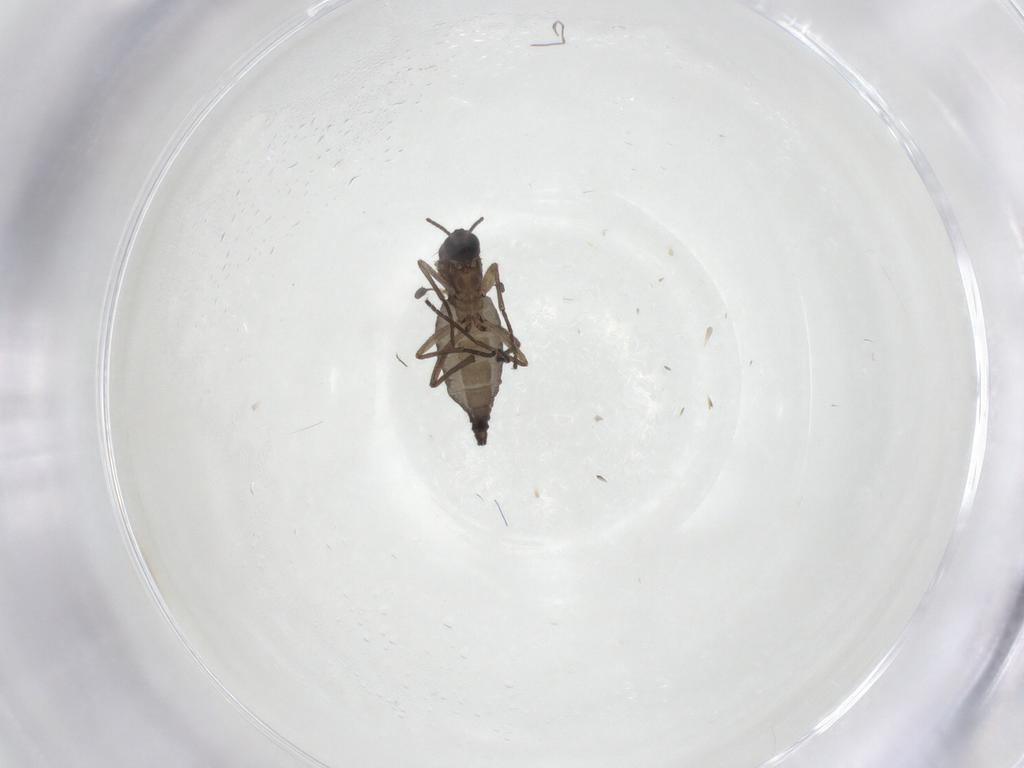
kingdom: Animalia
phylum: Arthropoda
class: Insecta
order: Diptera
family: Sciaridae
